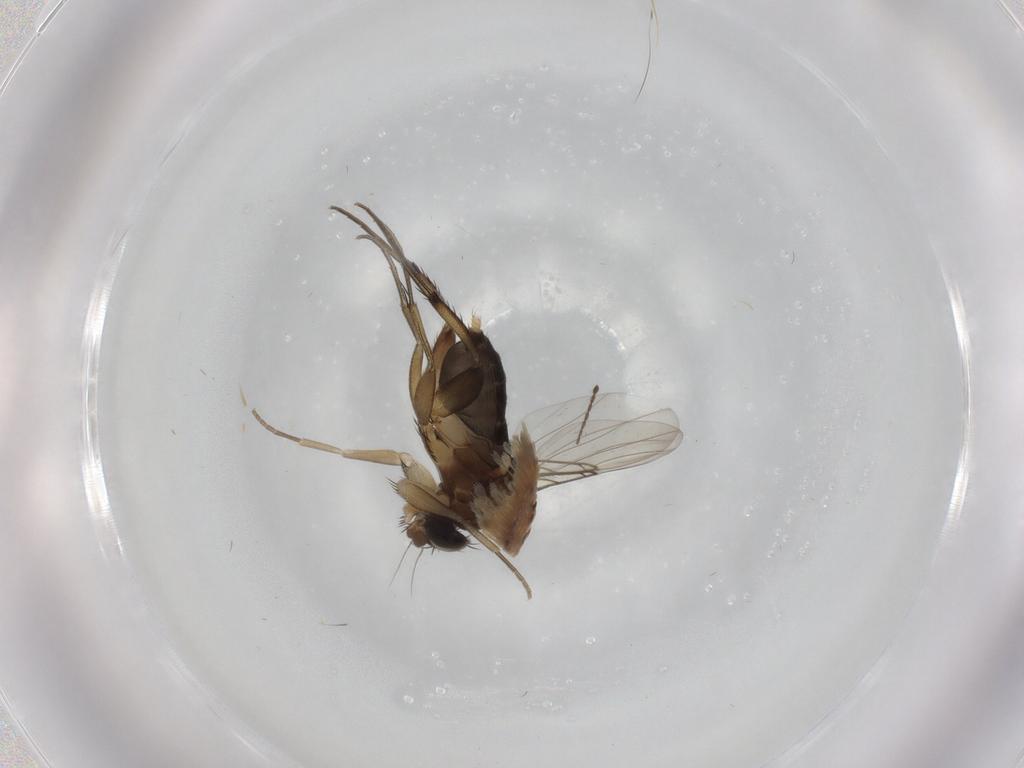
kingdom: Animalia
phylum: Arthropoda
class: Insecta
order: Diptera
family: Phoridae
